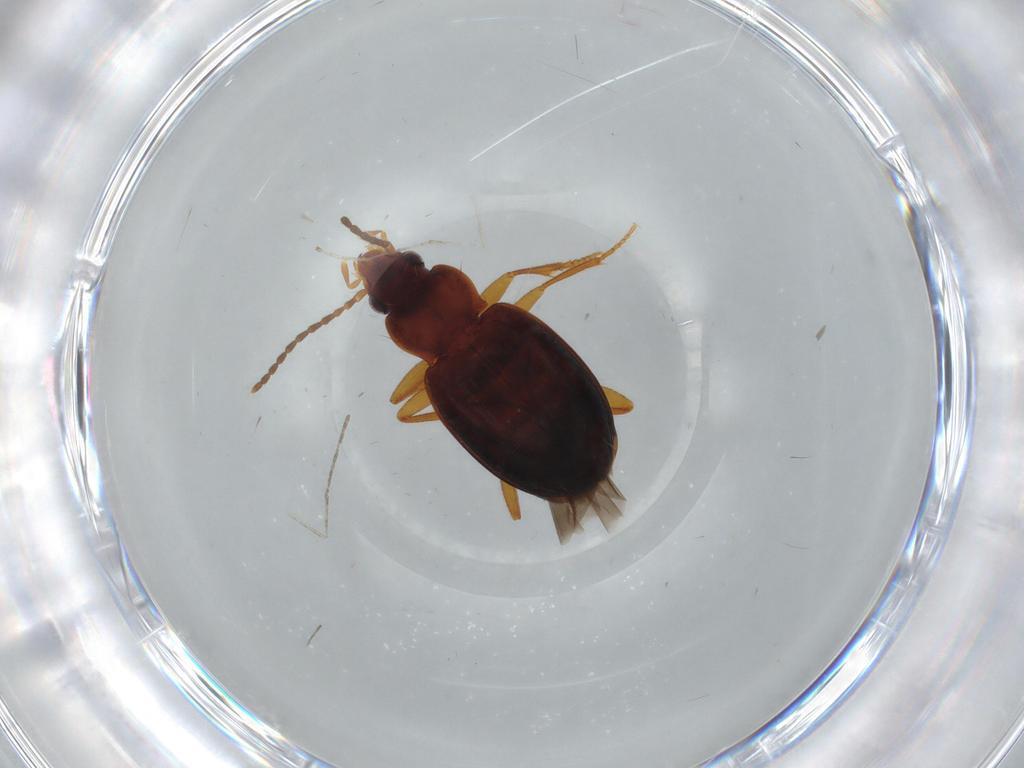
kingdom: Animalia
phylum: Arthropoda
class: Insecta
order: Coleoptera
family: Carabidae
